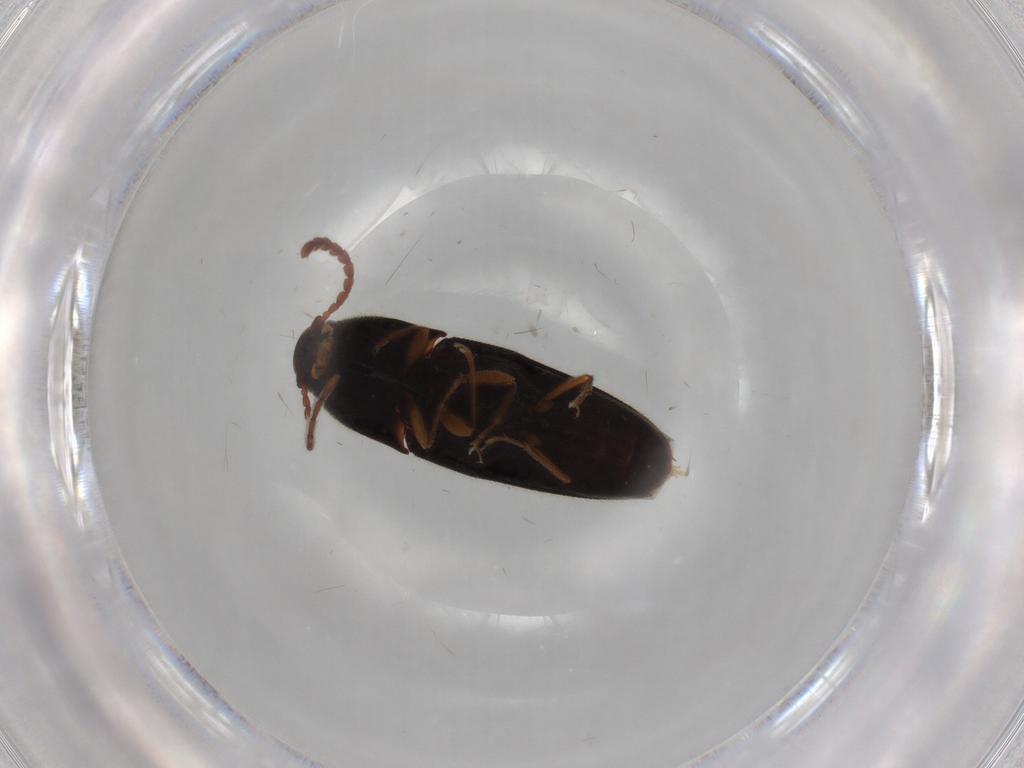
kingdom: Animalia
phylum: Arthropoda
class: Insecta
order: Coleoptera
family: Elateridae
